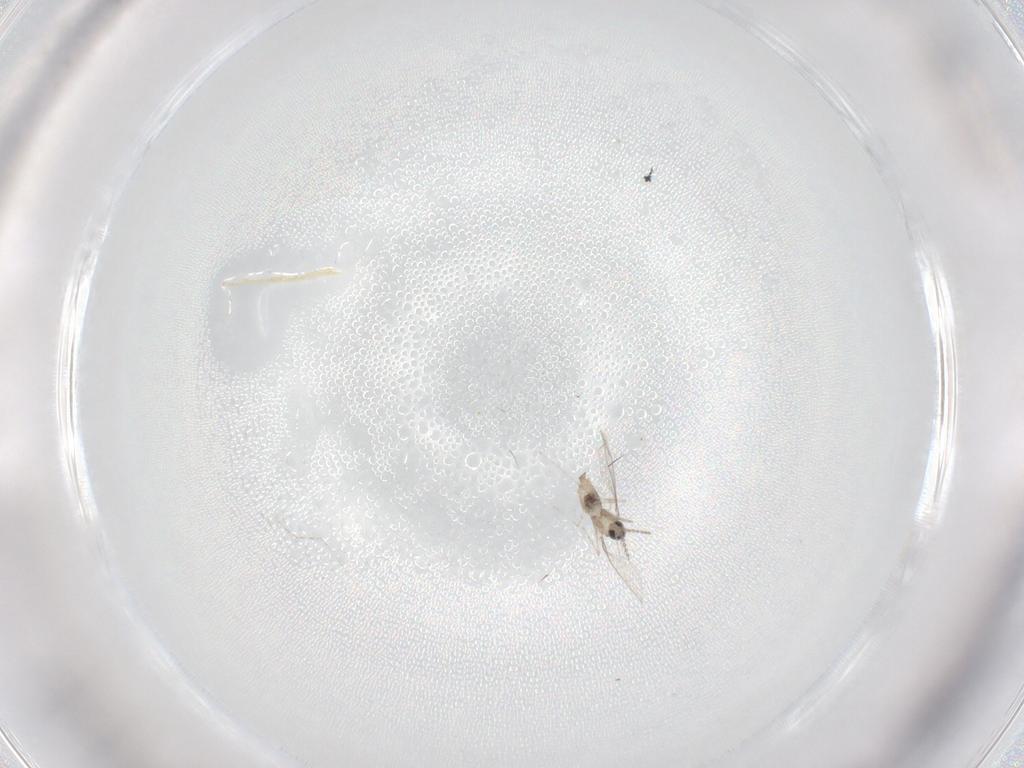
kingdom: Animalia
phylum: Arthropoda
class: Insecta
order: Diptera
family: Cecidomyiidae
